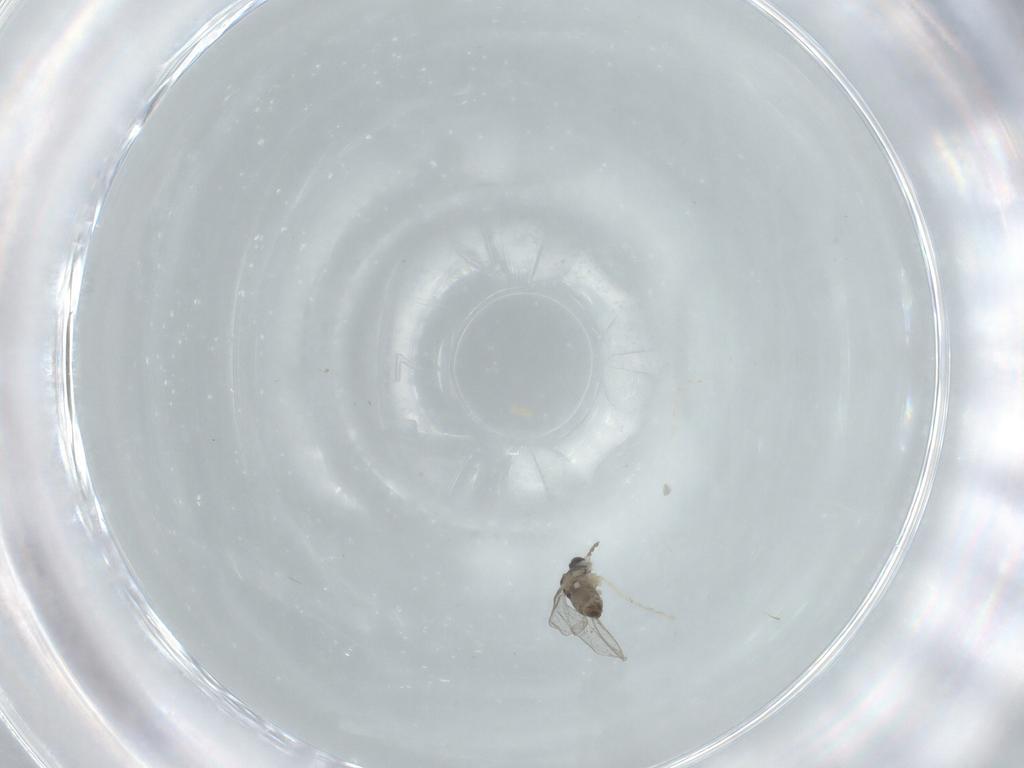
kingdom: Animalia
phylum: Arthropoda
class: Insecta
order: Diptera
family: Cecidomyiidae
